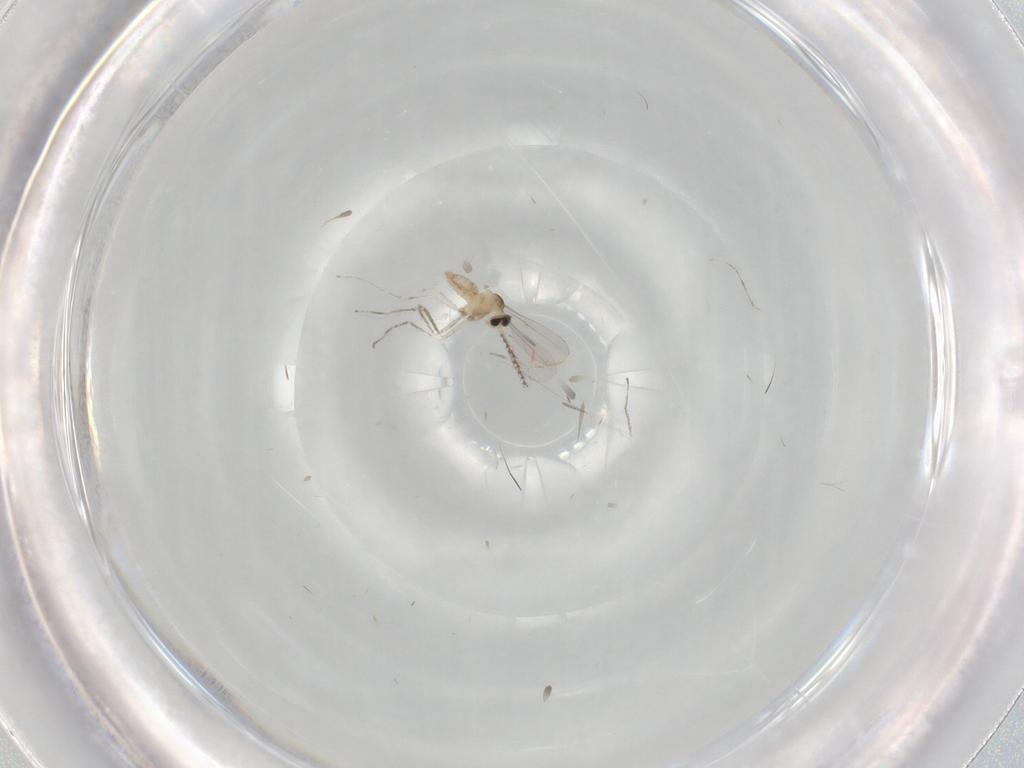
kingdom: Animalia
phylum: Arthropoda
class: Insecta
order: Diptera
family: Cecidomyiidae
